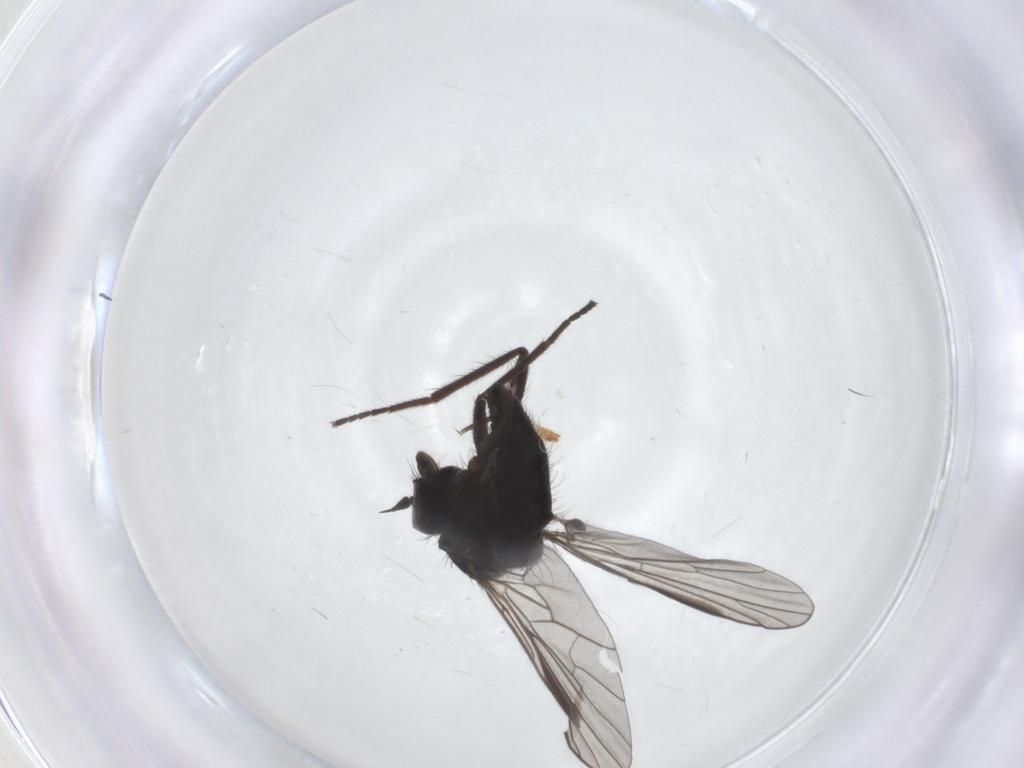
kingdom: Animalia
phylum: Arthropoda
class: Insecta
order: Diptera
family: Empididae
